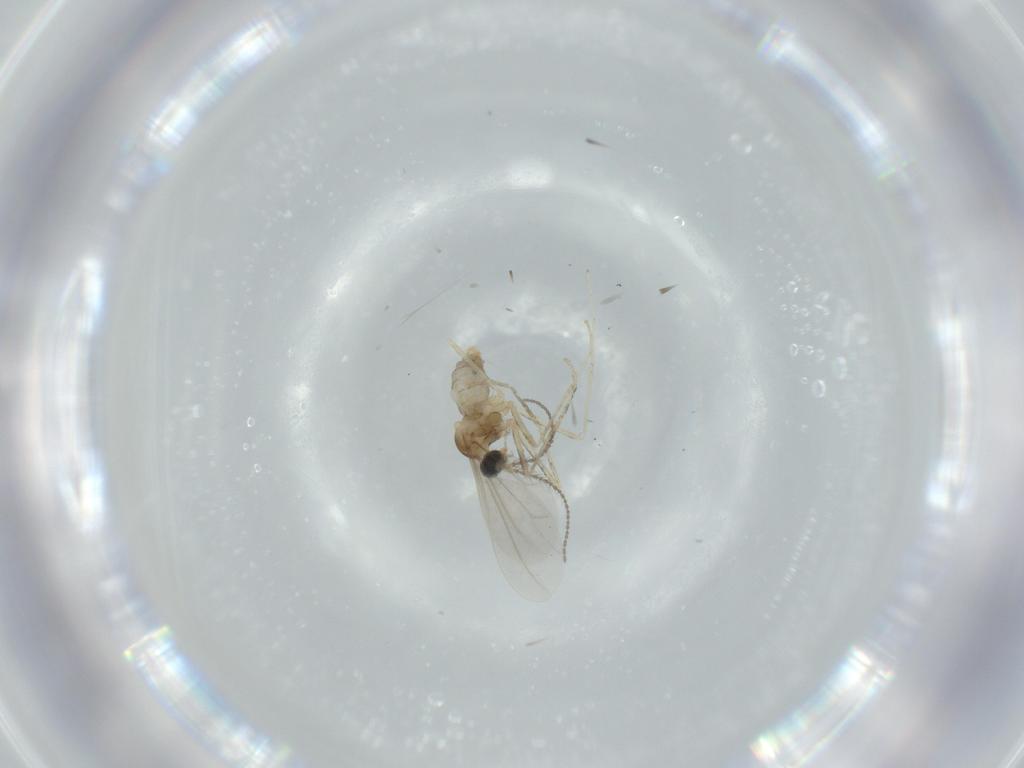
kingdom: Animalia
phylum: Arthropoda
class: Insecta
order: Diptera
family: Cecidomyiidae
